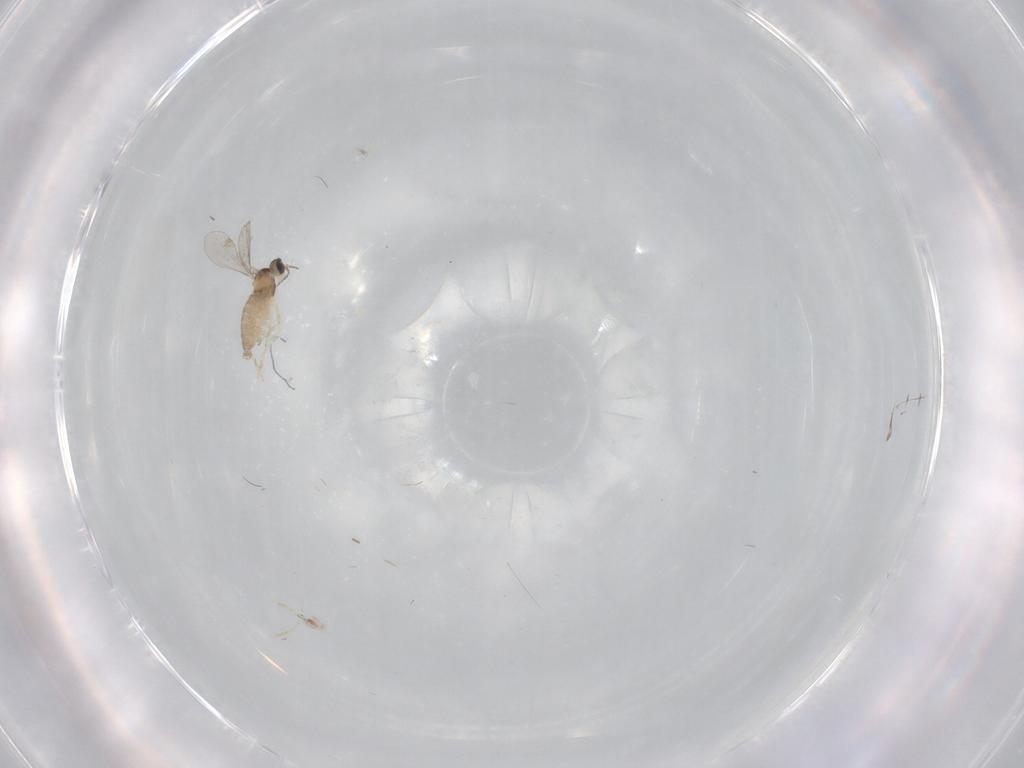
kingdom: Animalia
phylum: Arthropoda
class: Insecta
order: Diptera
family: Cecidomyiidae
